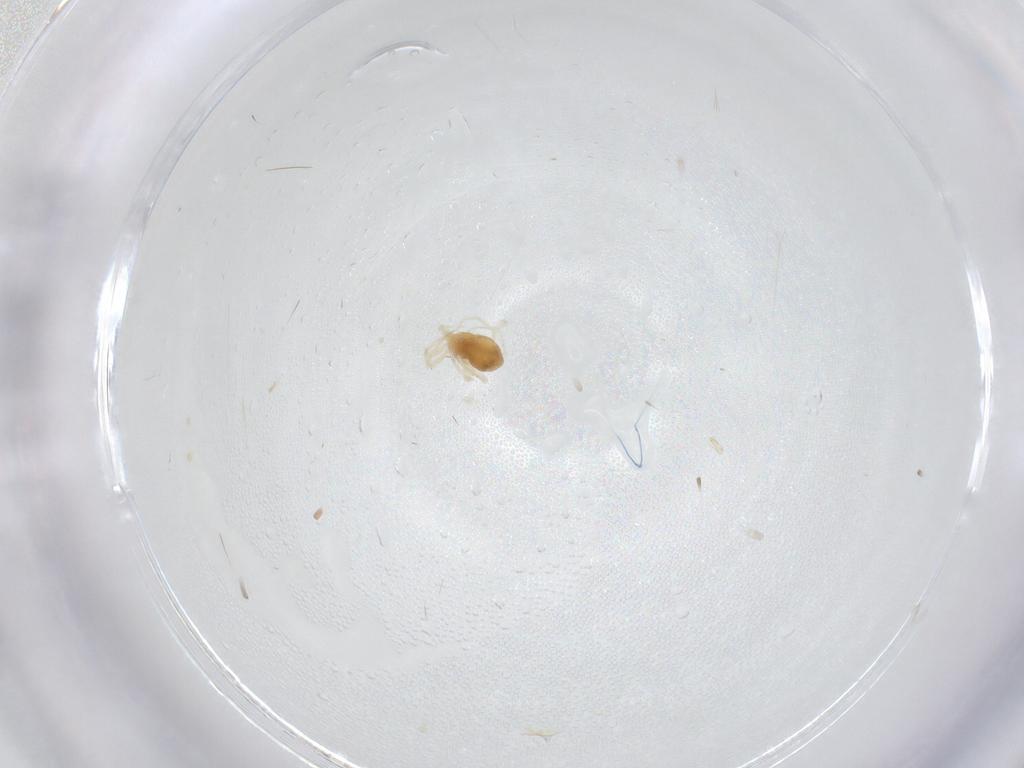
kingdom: Animalia
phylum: Arthropoda
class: Arachnida
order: Trombidiformes
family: Anystidae
